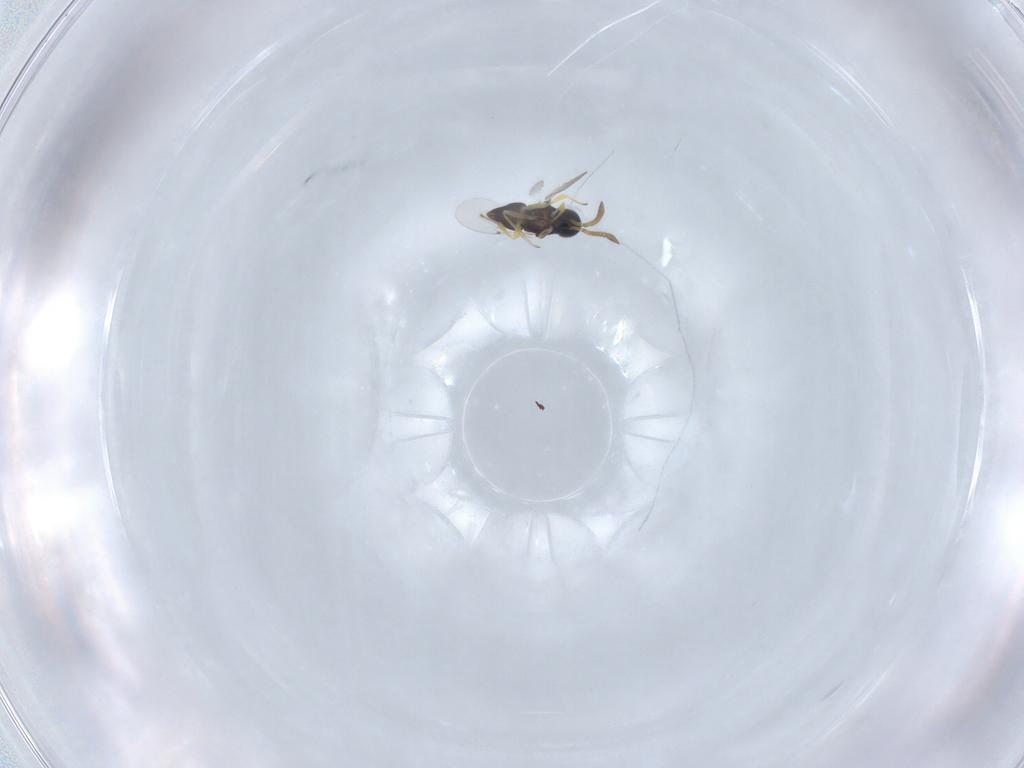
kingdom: Animalia
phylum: Arthropoda
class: Insecta
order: Hymenoptera
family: Encyrtidae
